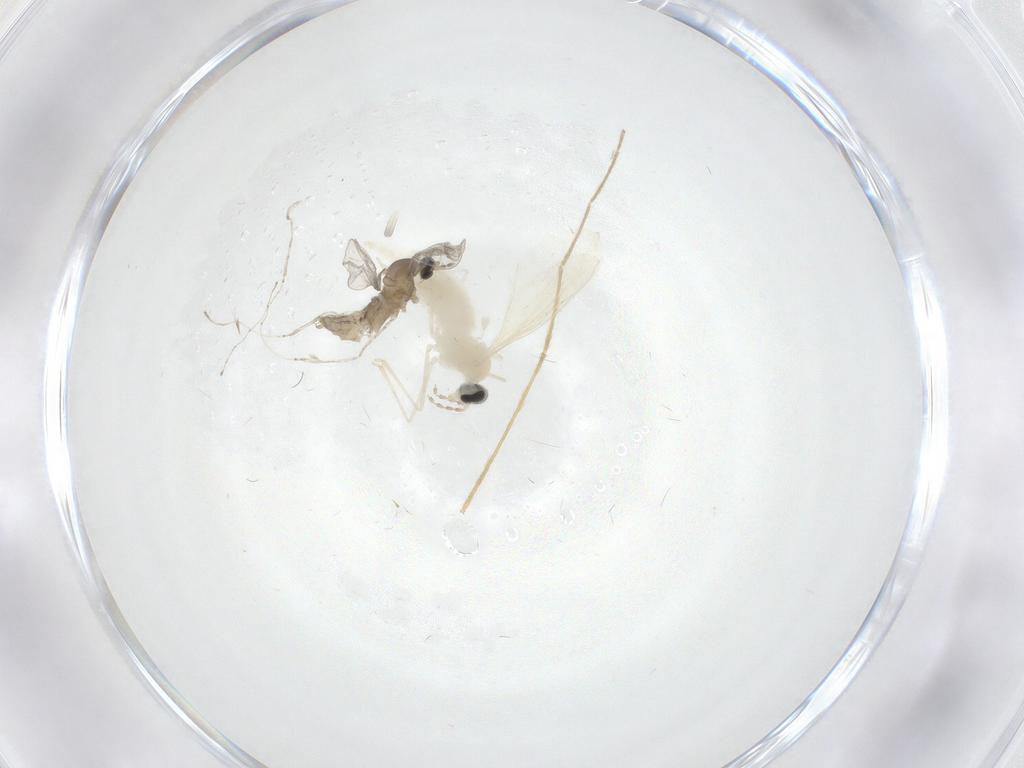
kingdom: Animalia
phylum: Arthropoda
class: Insecta
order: Diptera
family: Cecidomyiidae
